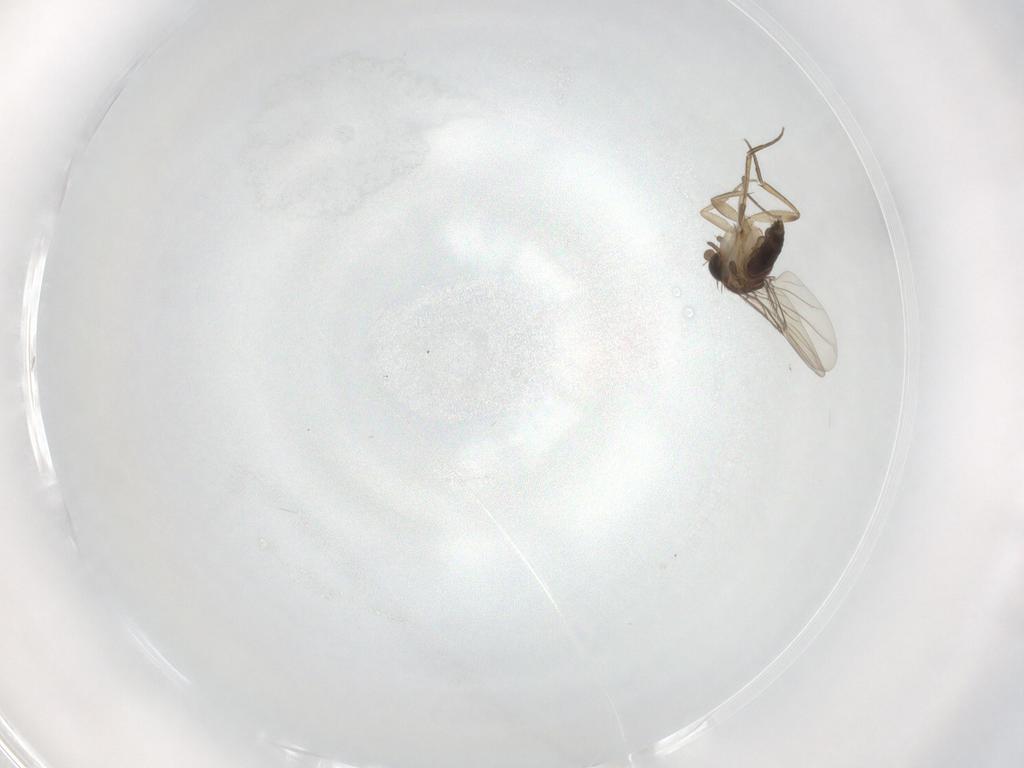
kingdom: Animalia
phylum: Arthropoda
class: Insecta
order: Diptera
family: Phoridae
